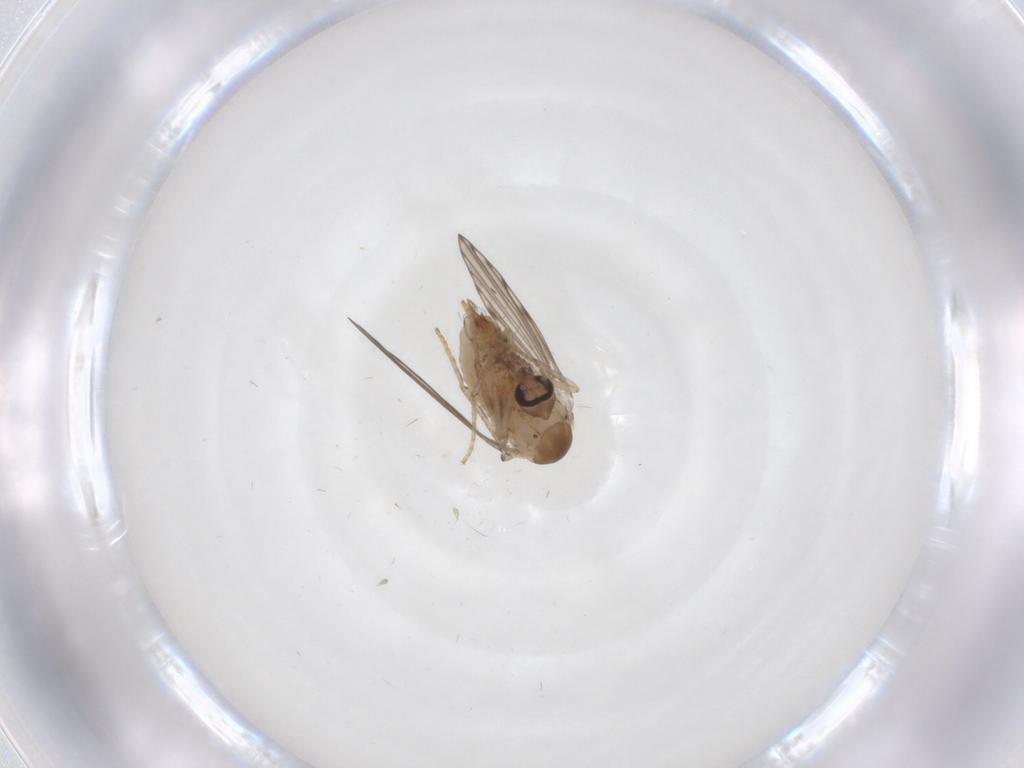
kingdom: Animalia
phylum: Arthropoda
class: Insecta
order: Diptera
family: Psychodidae
